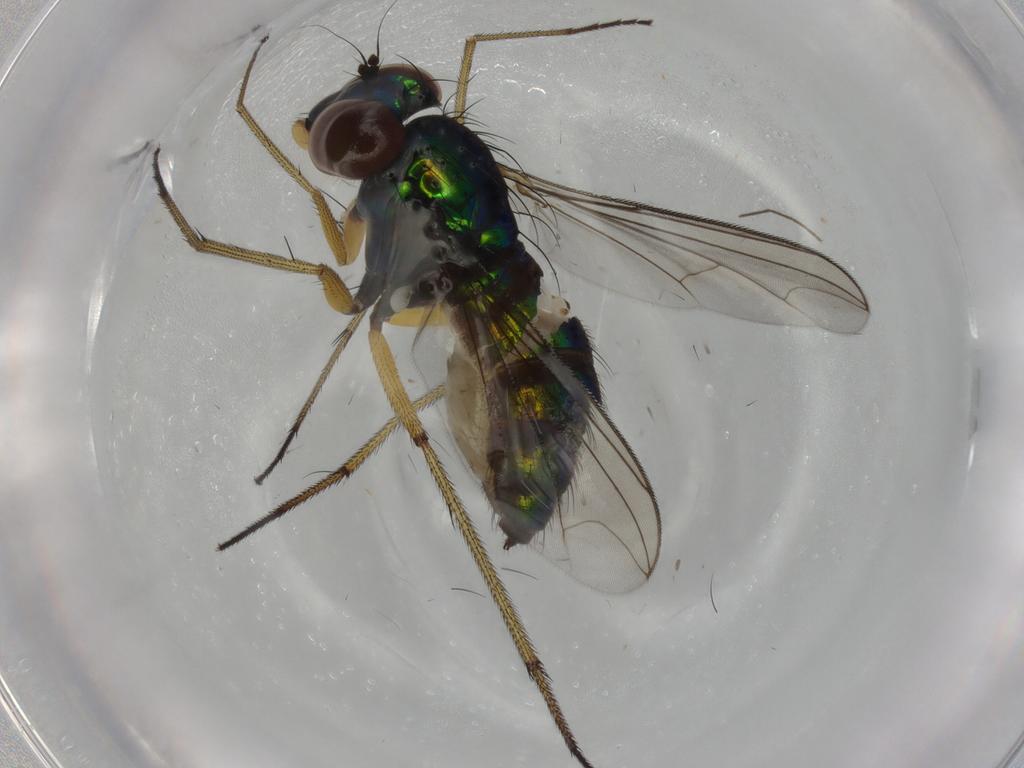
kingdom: Animalia
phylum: Arthropoda
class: Insecta
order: Diptera
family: Dolichopodidae
